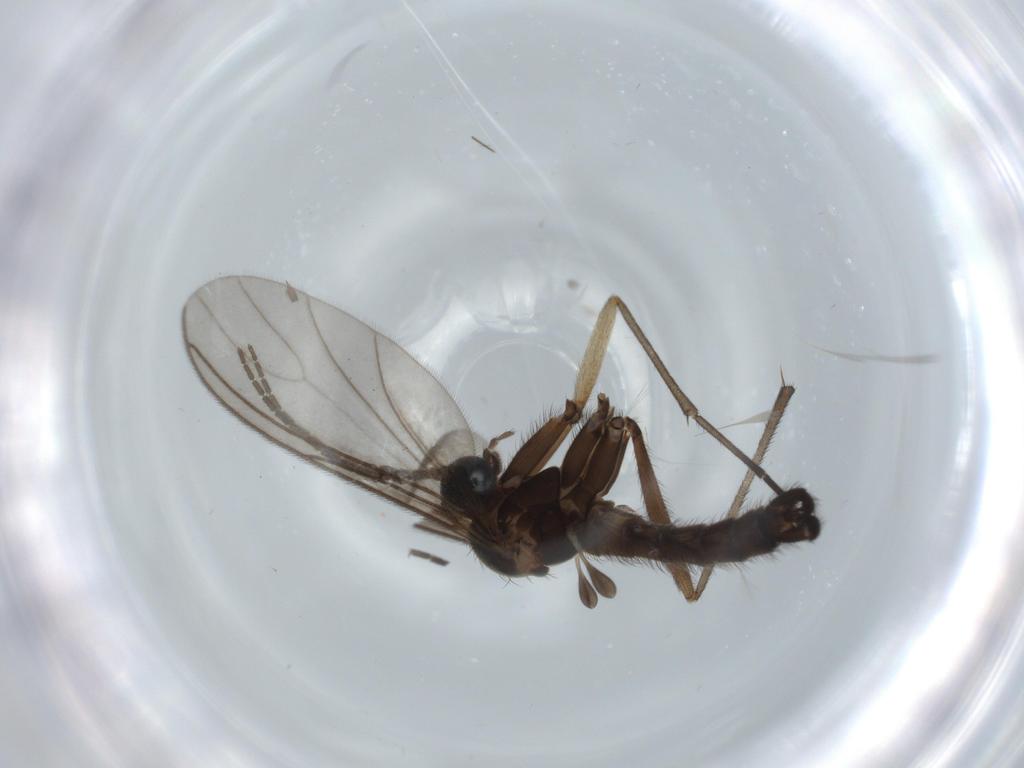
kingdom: Animalia
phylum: Arthropoda
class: Insecta
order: Diptera
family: Sciaridae
